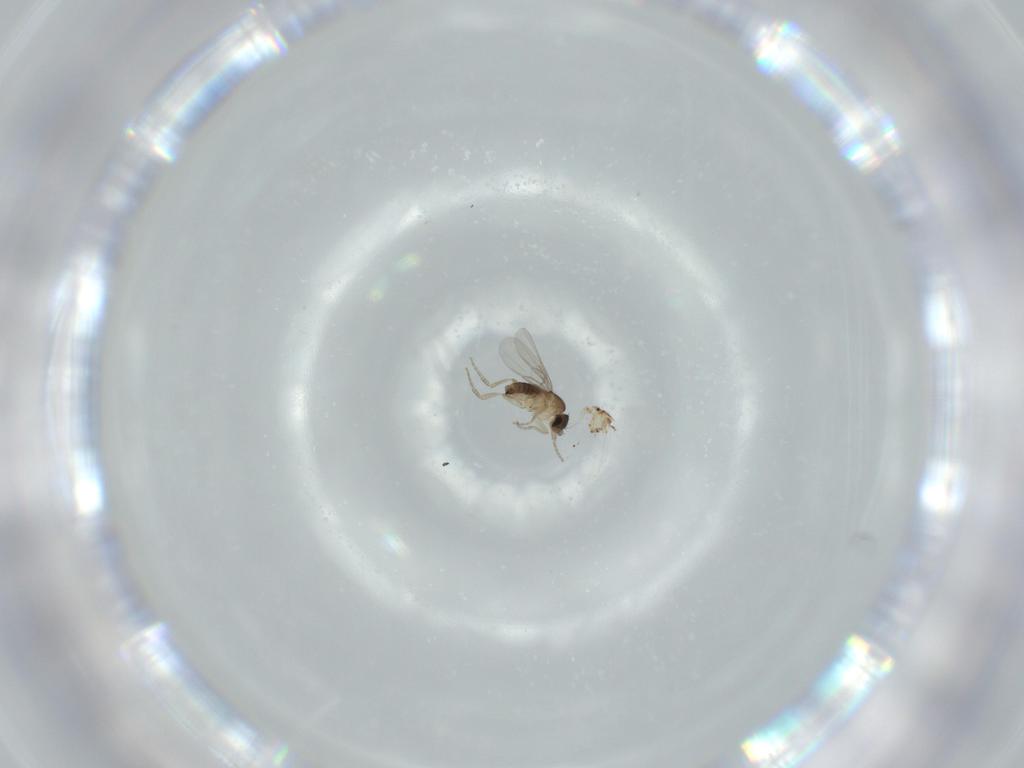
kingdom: Animalia
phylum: Arthropoda
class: Insecta
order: Diptera
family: Phoridae
